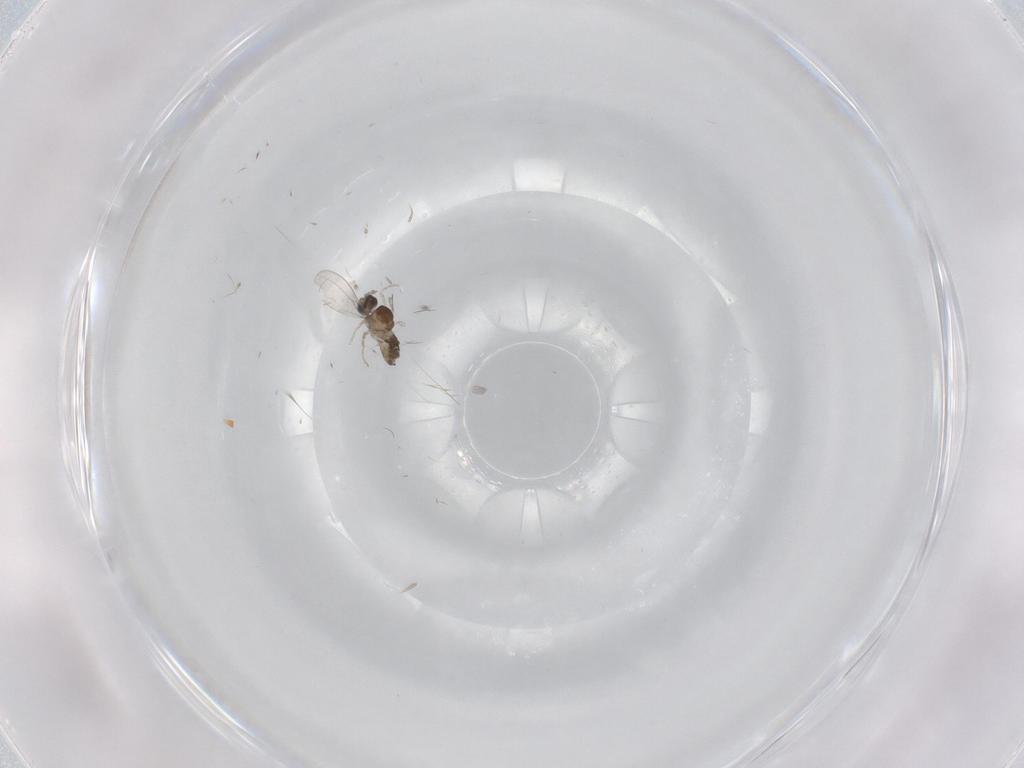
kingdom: Animalia
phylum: Arthropoda
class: Insecta
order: Diptera
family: Cecidomyiidae
